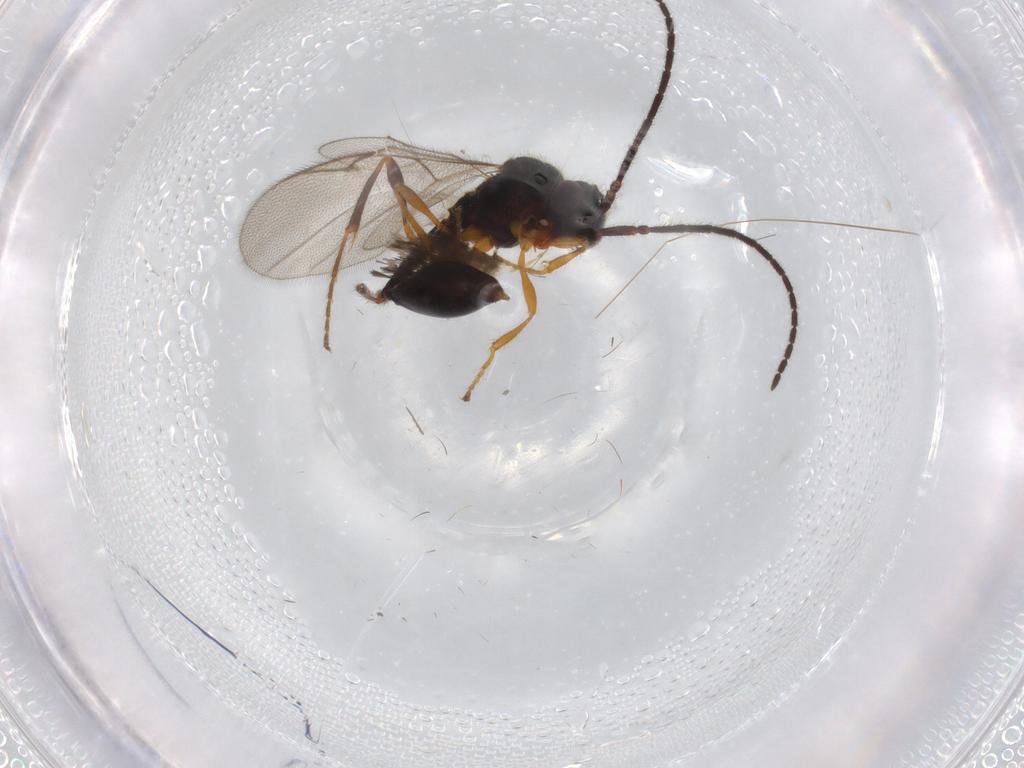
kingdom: Animalia
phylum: Arthropoda
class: Insecta
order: Hymenoptera
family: Diapriidae
